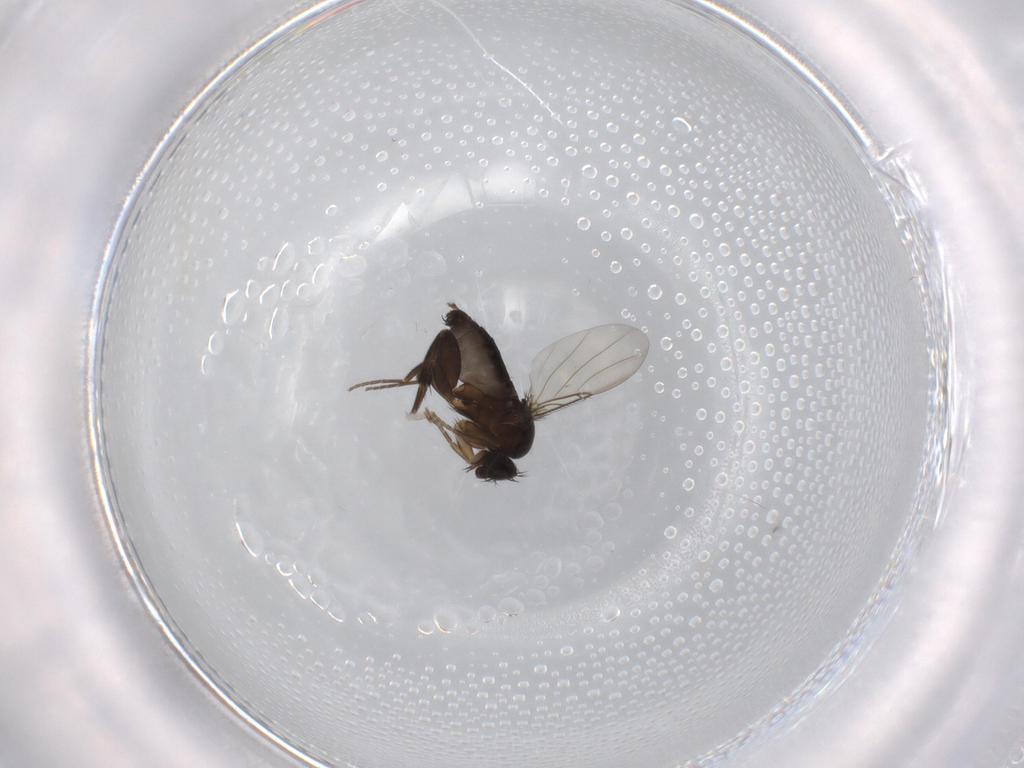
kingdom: Animalia
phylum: Arthropoda
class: Insecta
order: Diptera
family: Phoridae
